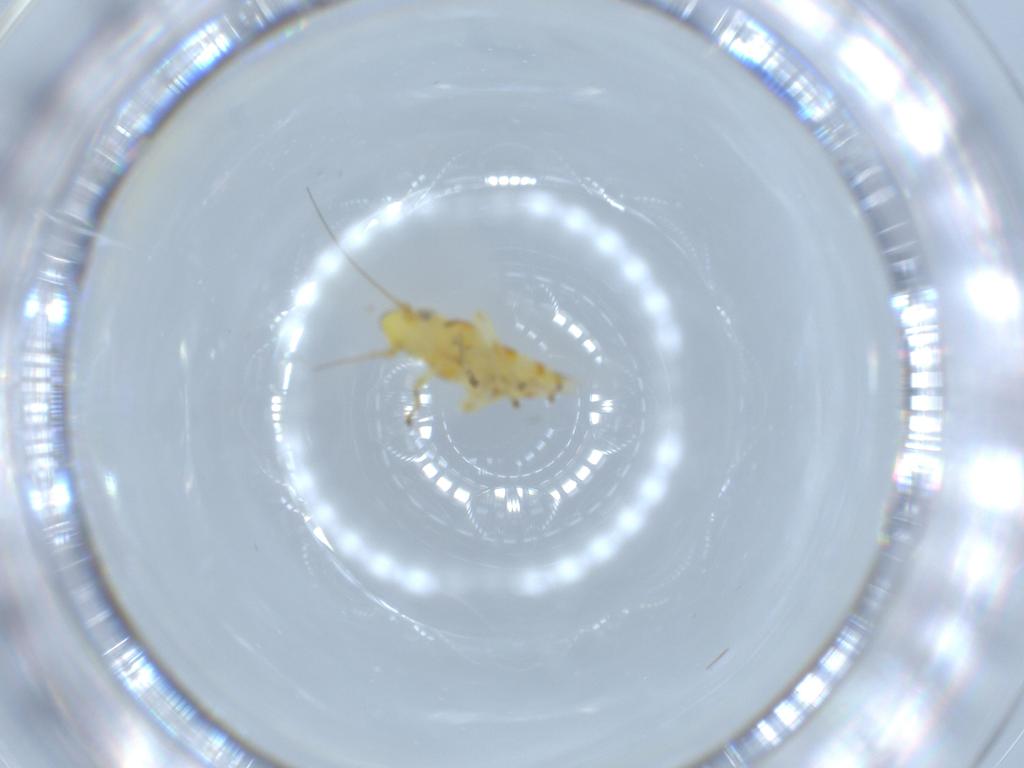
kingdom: Animalia
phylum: Arthropoda
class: Insecta
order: Hemiptera
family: Cicadellidae
